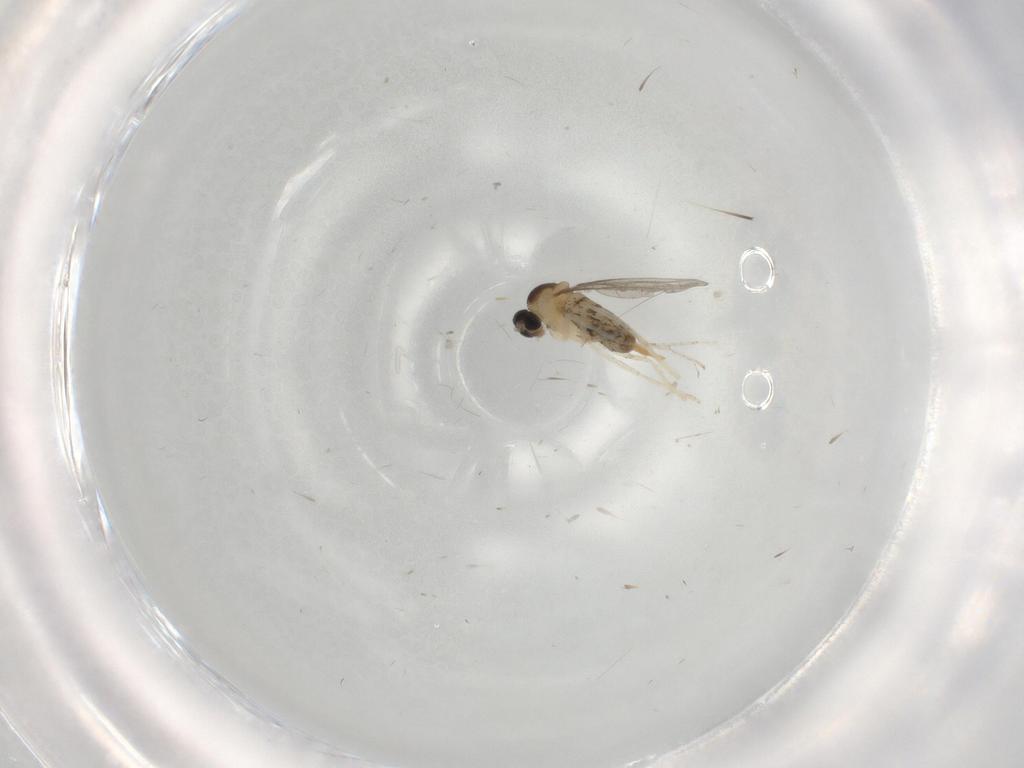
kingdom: Animalia
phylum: Arthropoda
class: Insecta
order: Diptera
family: Cecidomyiidae
